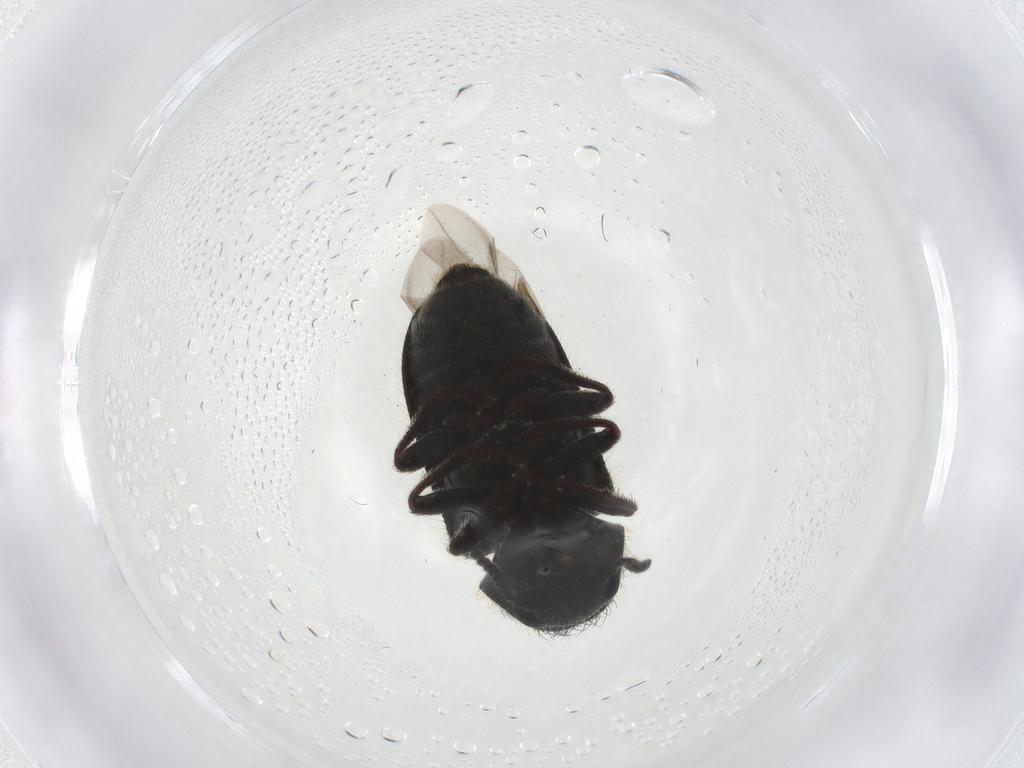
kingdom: Animalia
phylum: Arthropoda
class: Insecta
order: Coleoptera
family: Melyridae
